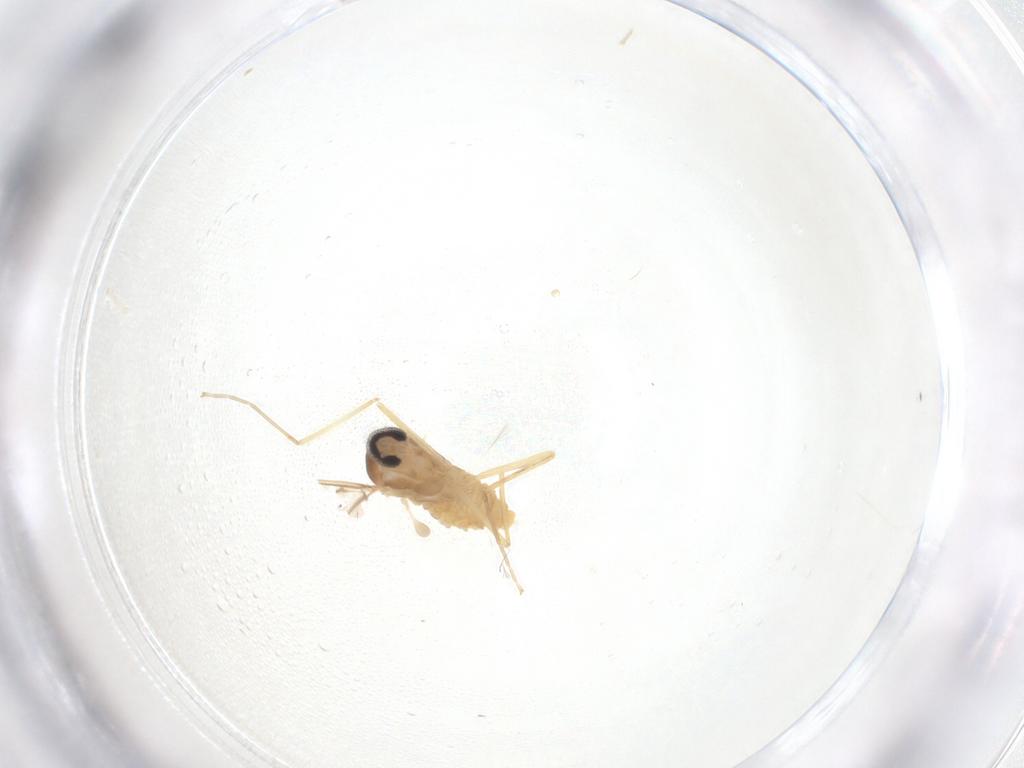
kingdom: Animalia
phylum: Arthropoda
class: Insecta
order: Diptera
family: Cecidomyiidae
